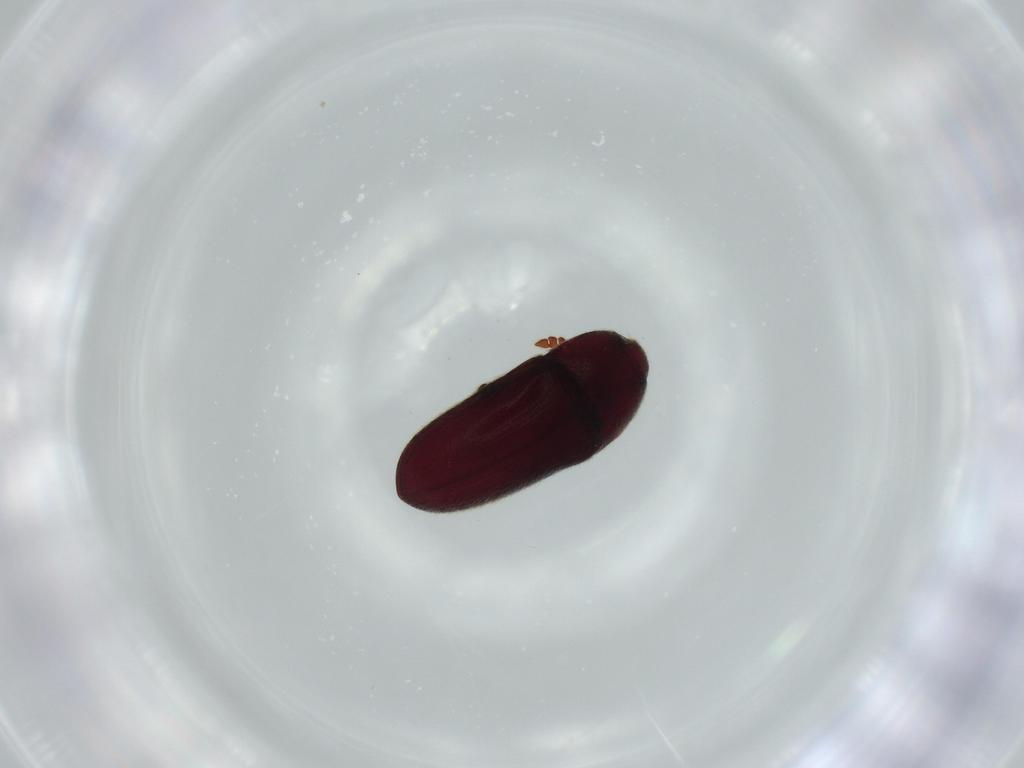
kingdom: Animalia
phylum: Arthropoda
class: Insecta
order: Coleoptera
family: Throscidae
